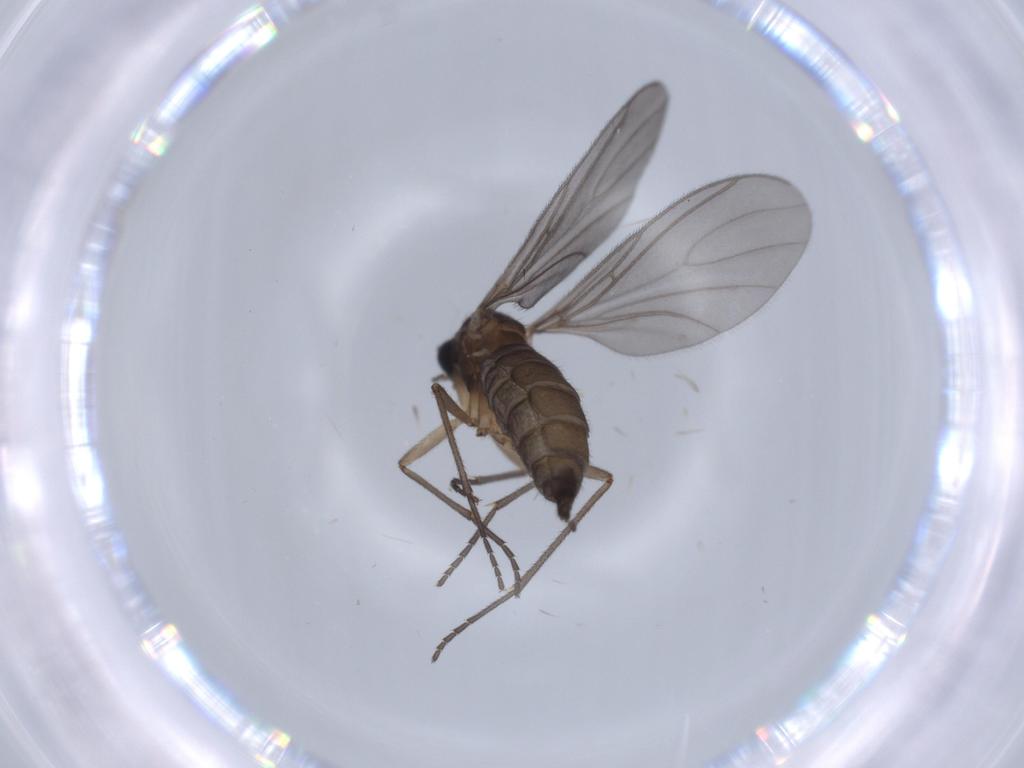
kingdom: Animalia
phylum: Arthropoda
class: Insecta
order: Diptera
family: Sciaridae
